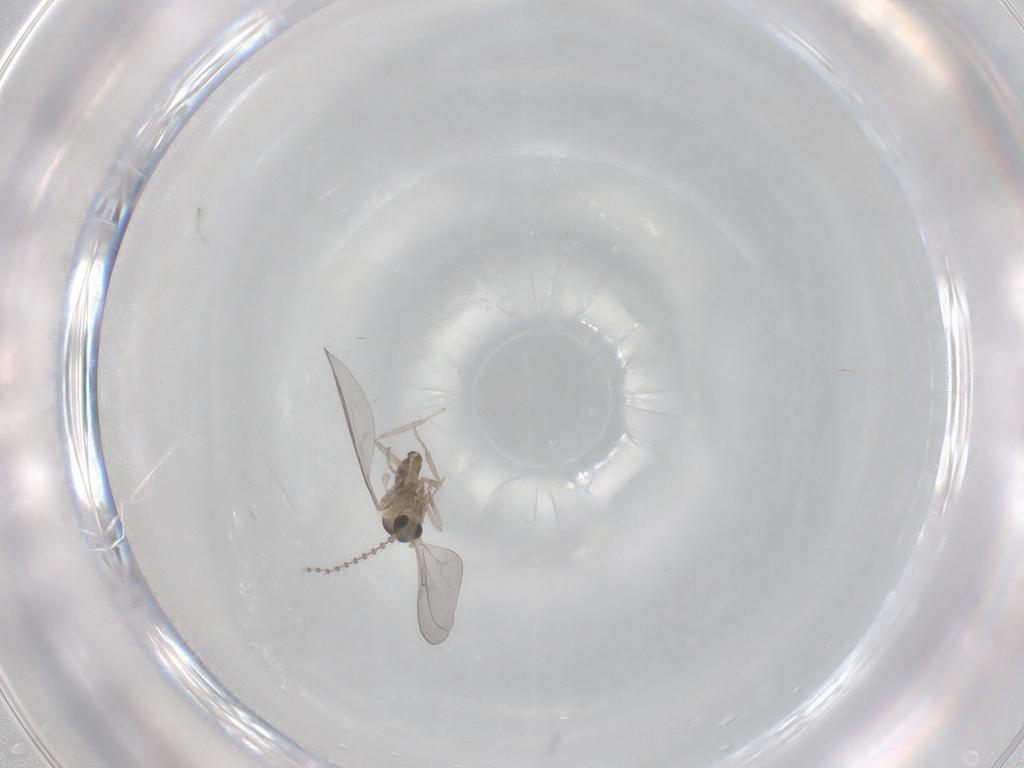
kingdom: Animalia
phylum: Arthropoda
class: Insecta
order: Diptera
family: Cecidomyiidae
